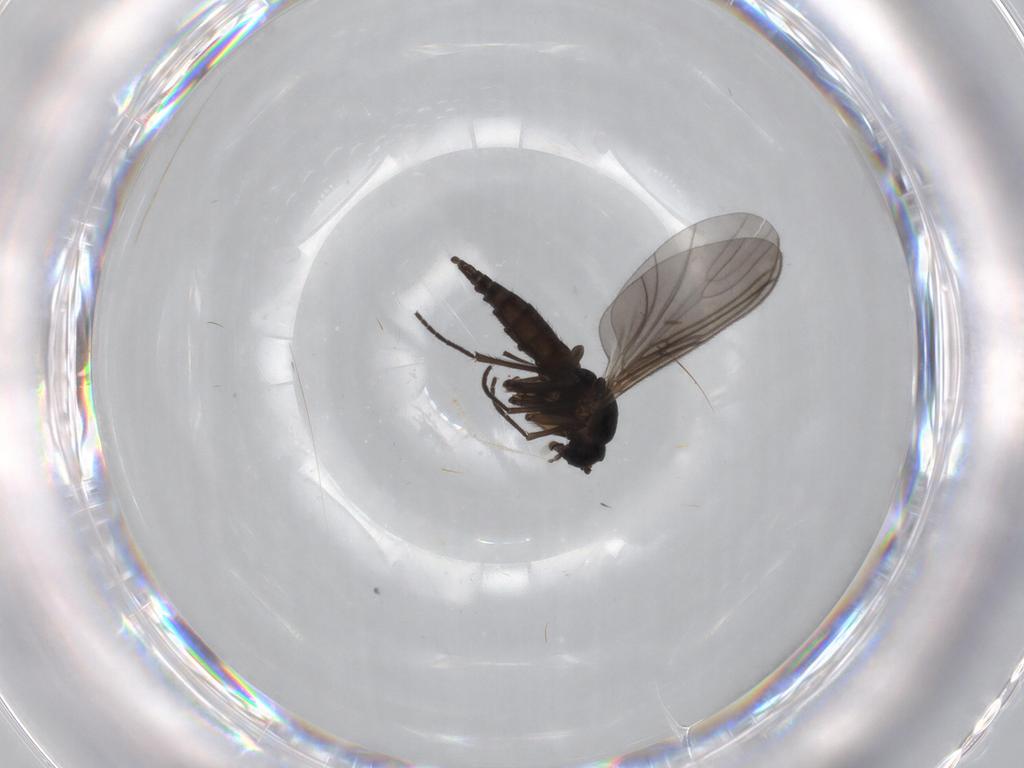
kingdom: Animalia
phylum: Arthropoda
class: Insecta
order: Diptera
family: Sciaridae
